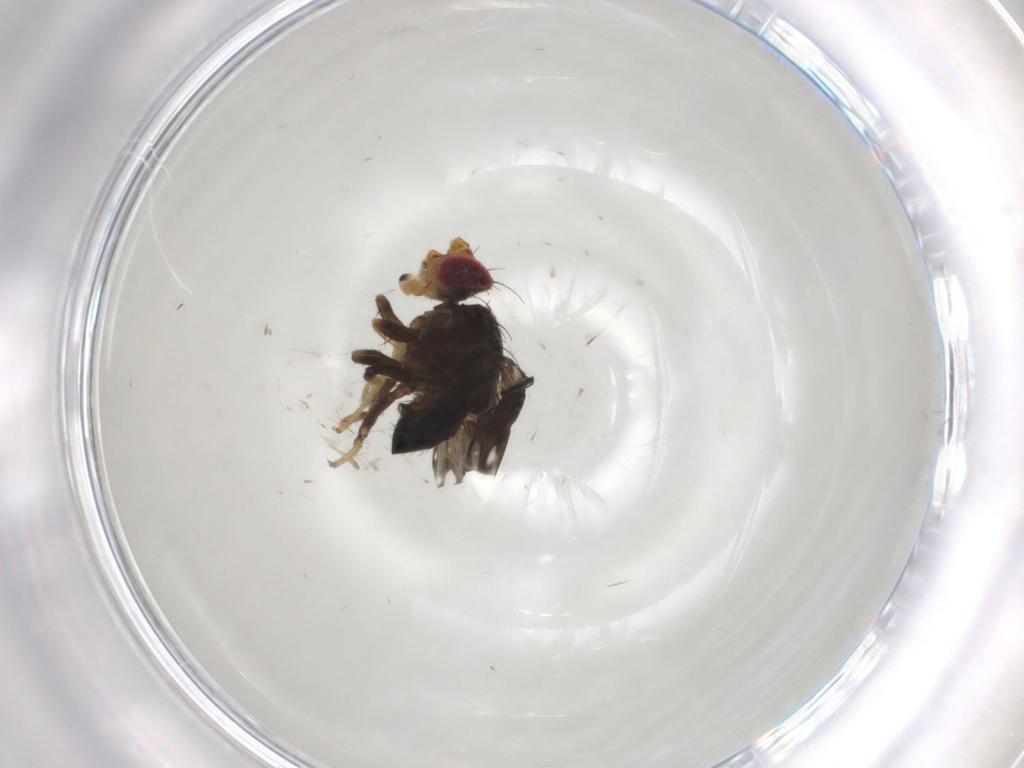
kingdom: Animalia
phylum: Arthropoda
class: Insecta
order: Diptera
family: Tephritidae
